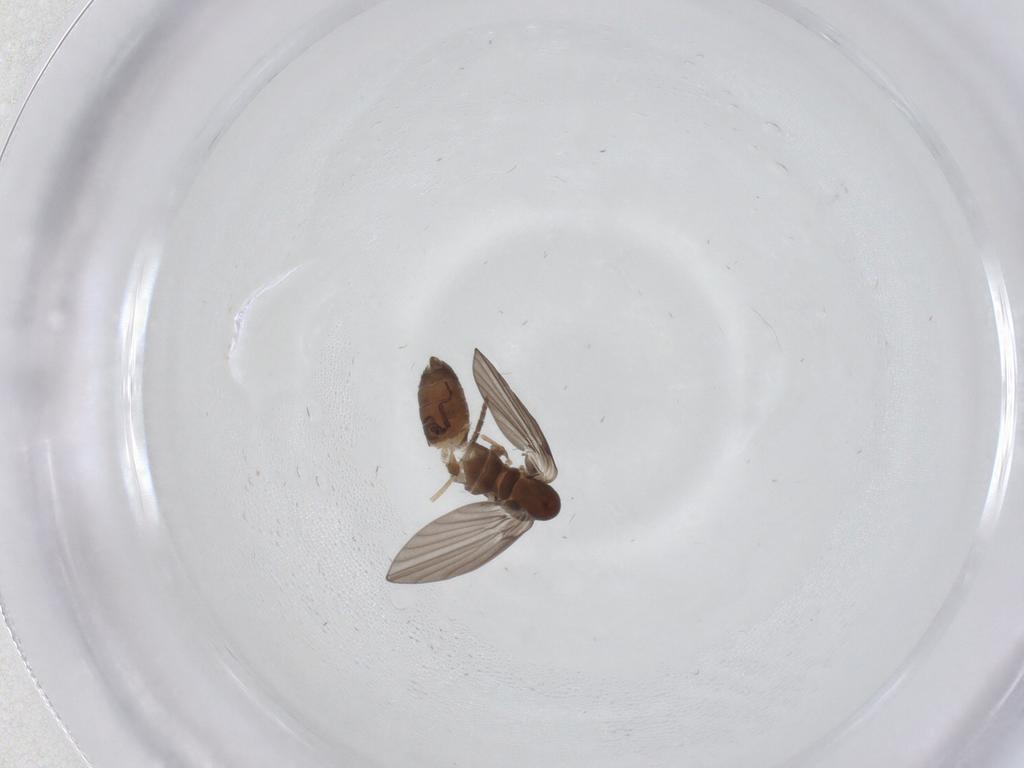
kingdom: Animalia
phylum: Arthropoda
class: Insecta
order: Diptera
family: Psychodidae
